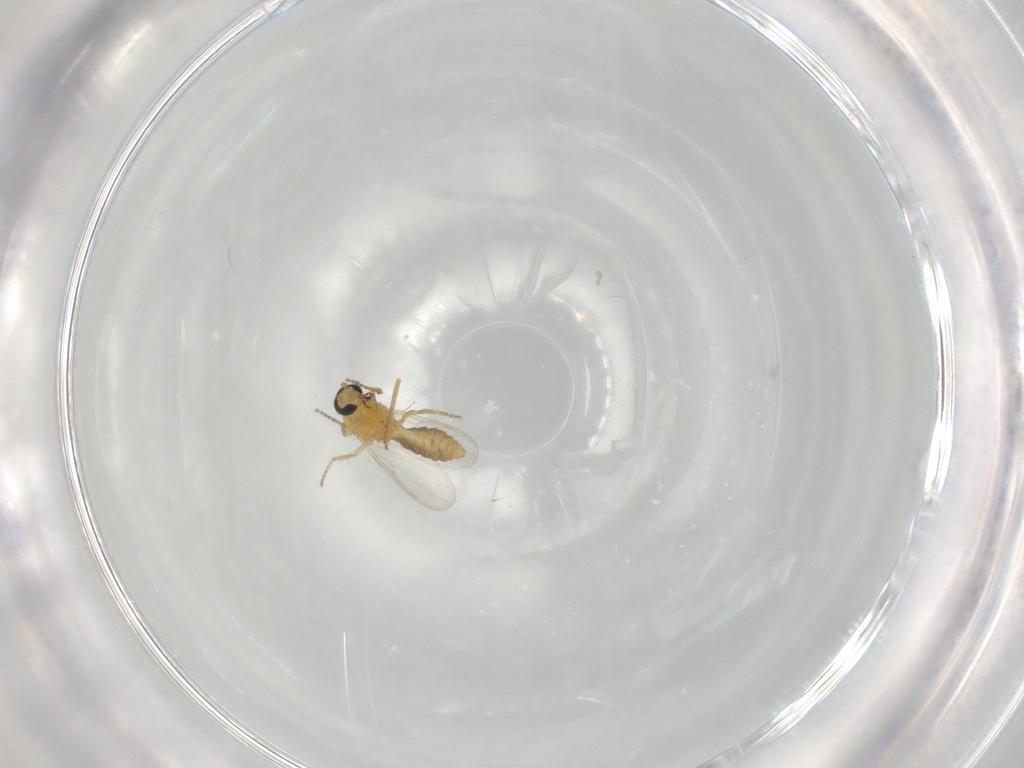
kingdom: Animalia
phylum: Arthropoda
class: Insecta
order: Diptera
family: Ceratopogonidae
